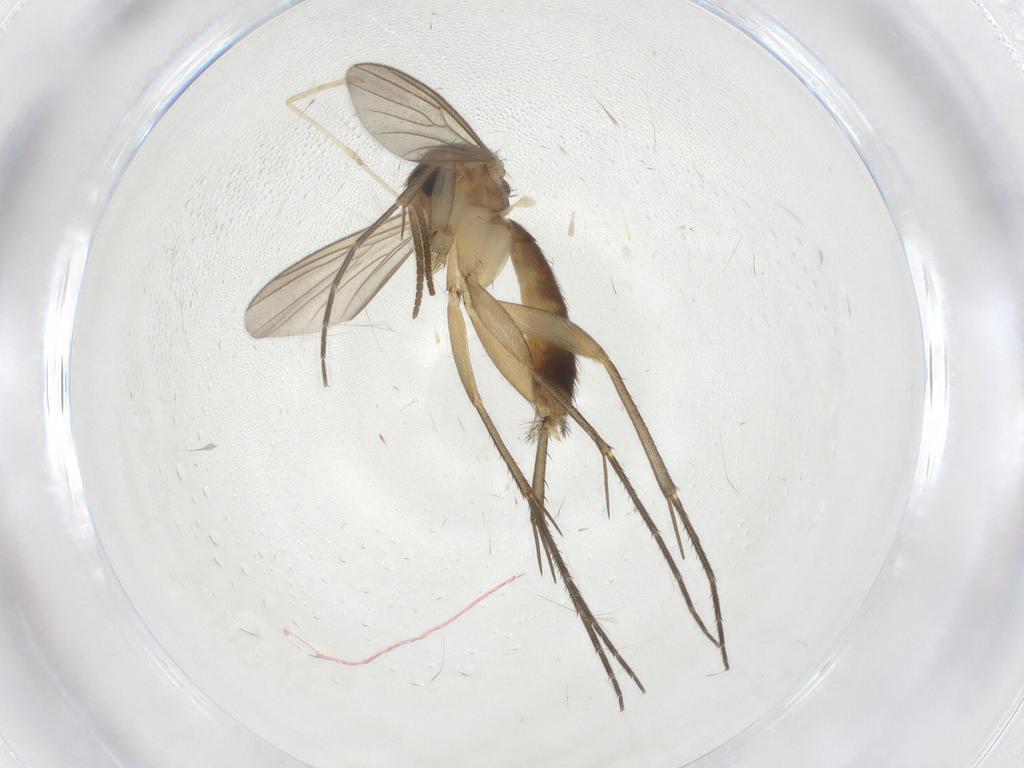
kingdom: Animalia
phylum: Arthropoda
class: Insecta
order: Diptera
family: Mycetophilidae
